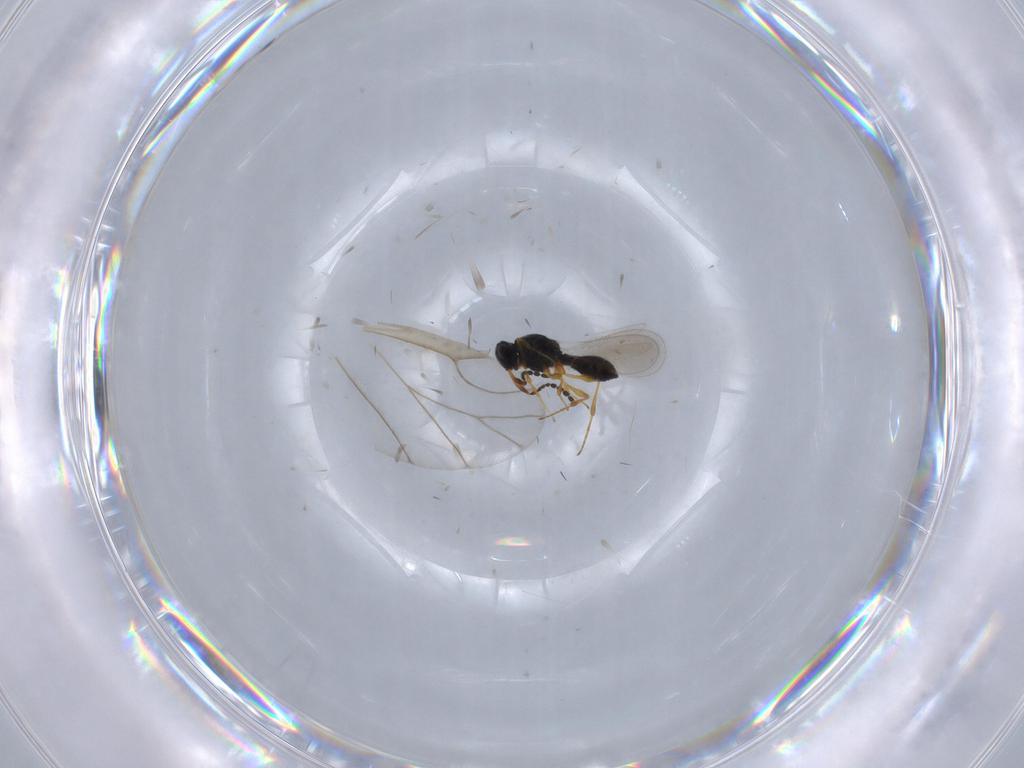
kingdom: Animalia
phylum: Arthropoda
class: Insecta
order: Hymenoptera
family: Platygastridae
